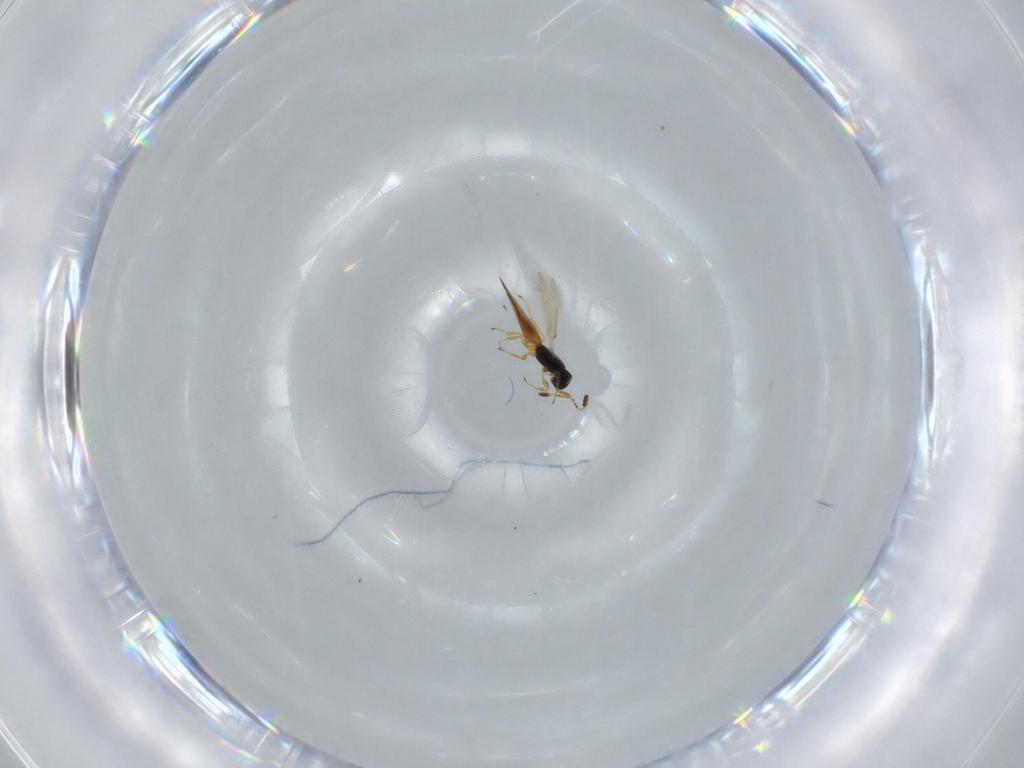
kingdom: Animalia
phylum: Arthropoda
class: Insecta
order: Hymenoptera
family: Scelionidae
